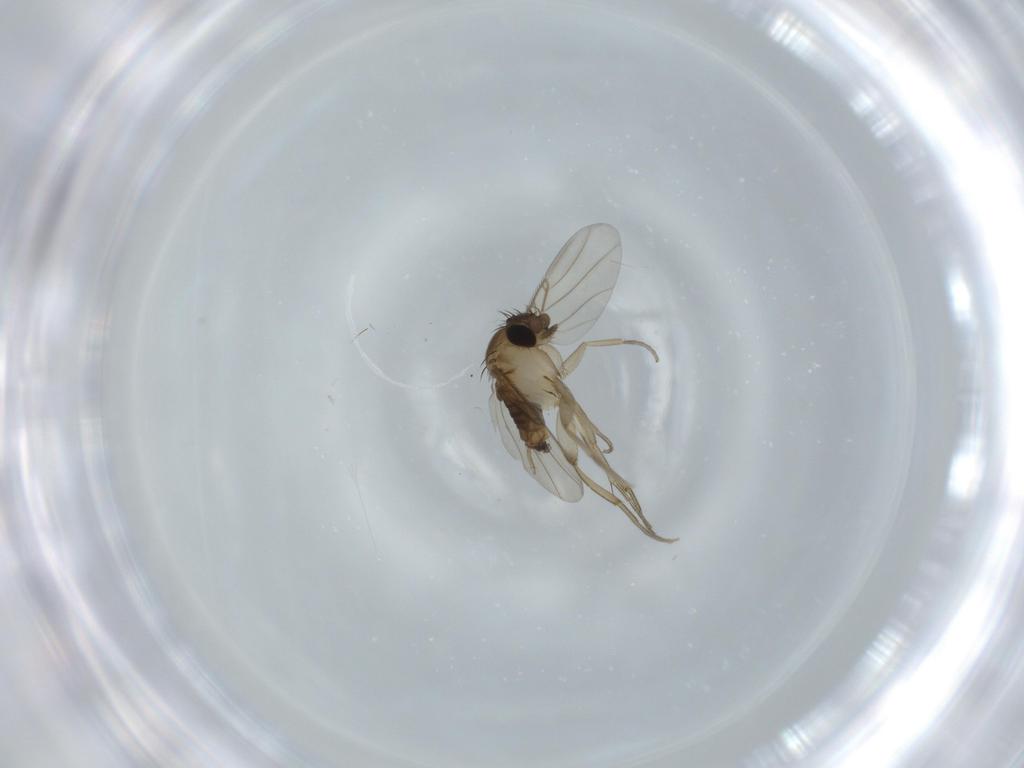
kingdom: Animalia
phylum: Arthropoda
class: Insecta
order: Diptera
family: Phoridae
